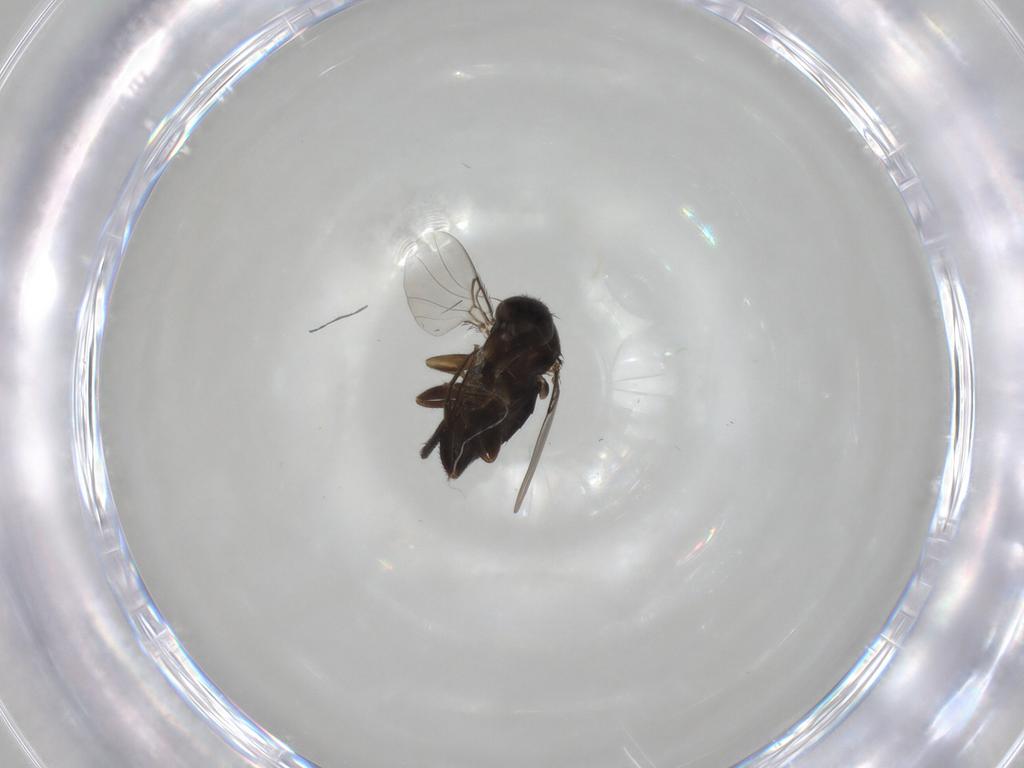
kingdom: Animalia
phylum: Arthropoda
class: Insecta
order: Diptera
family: Phoridae
